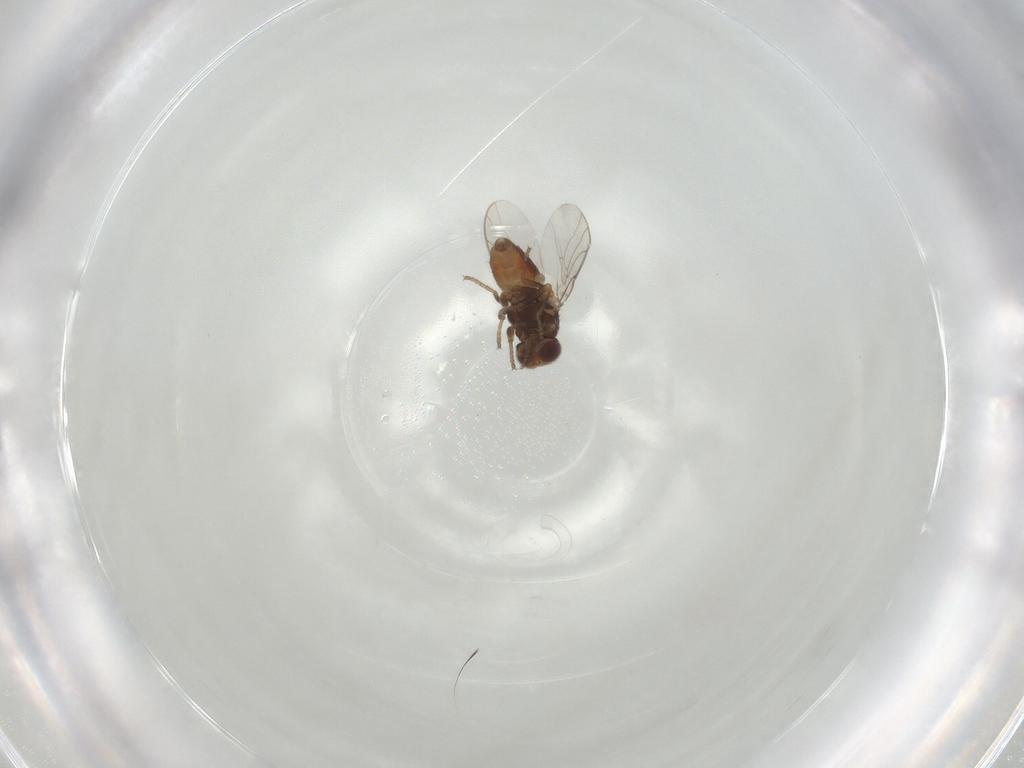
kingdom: Animalia
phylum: Arthropoda
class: Insecta
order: Diptera
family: Chloropidae
